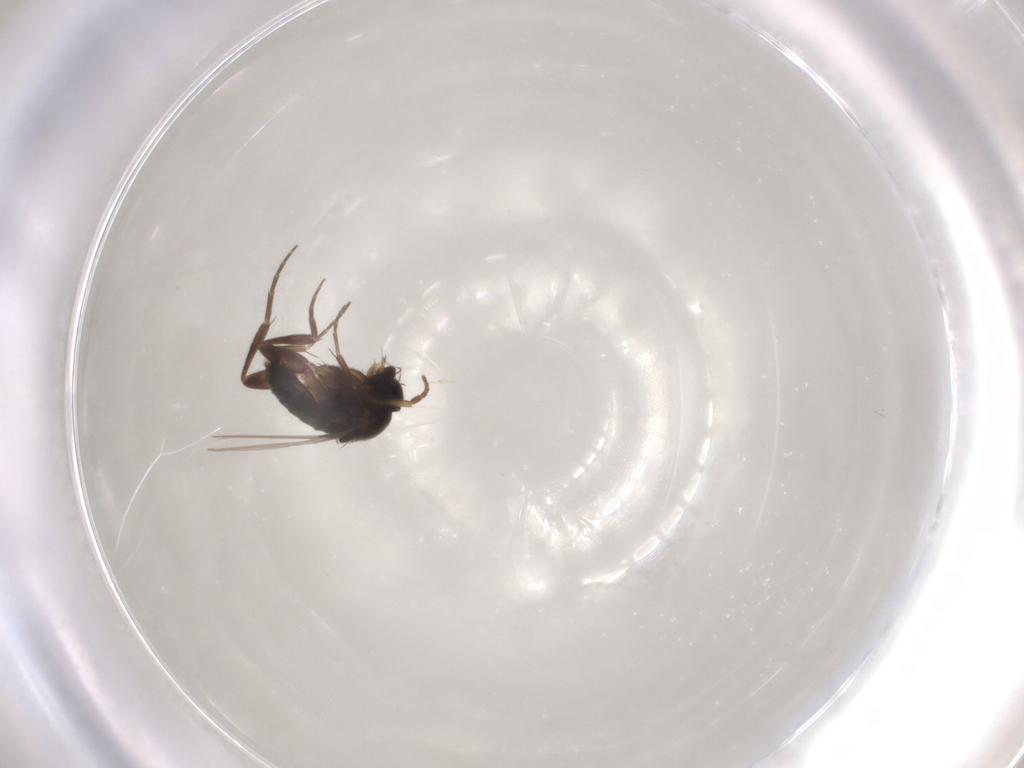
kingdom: Animalia
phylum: Arthropoda
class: Insecta
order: Diptera
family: Phoridae
